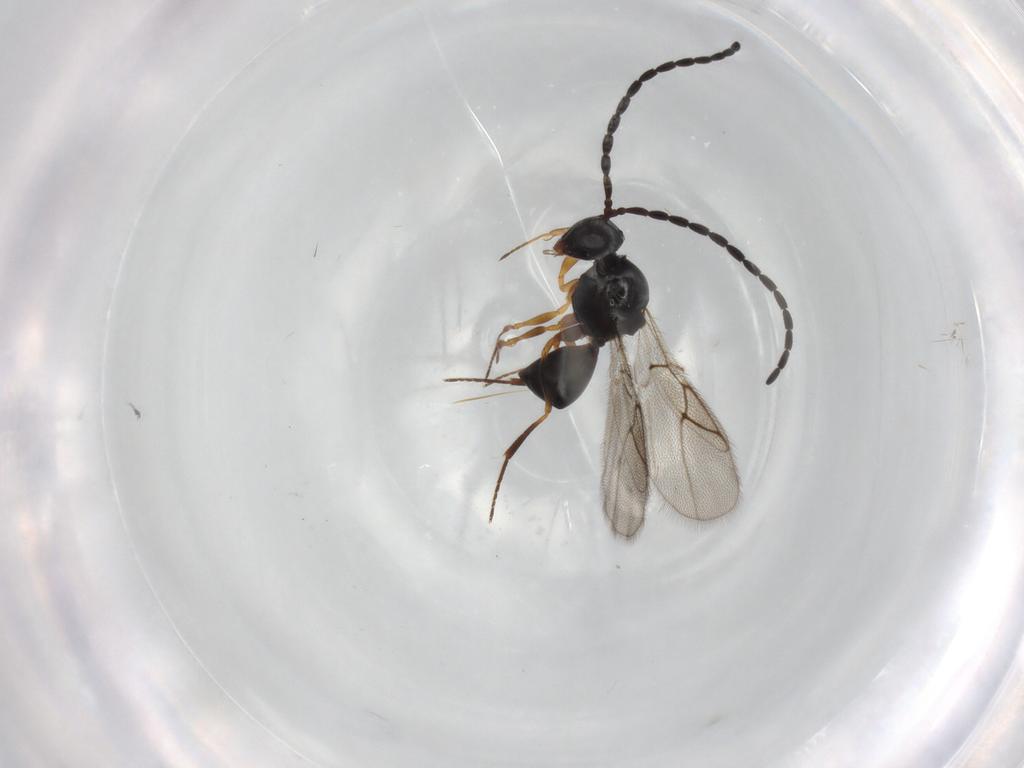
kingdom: Animalia
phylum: Arthropoda
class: Insecta
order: Hymenoptera
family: Figitidae
